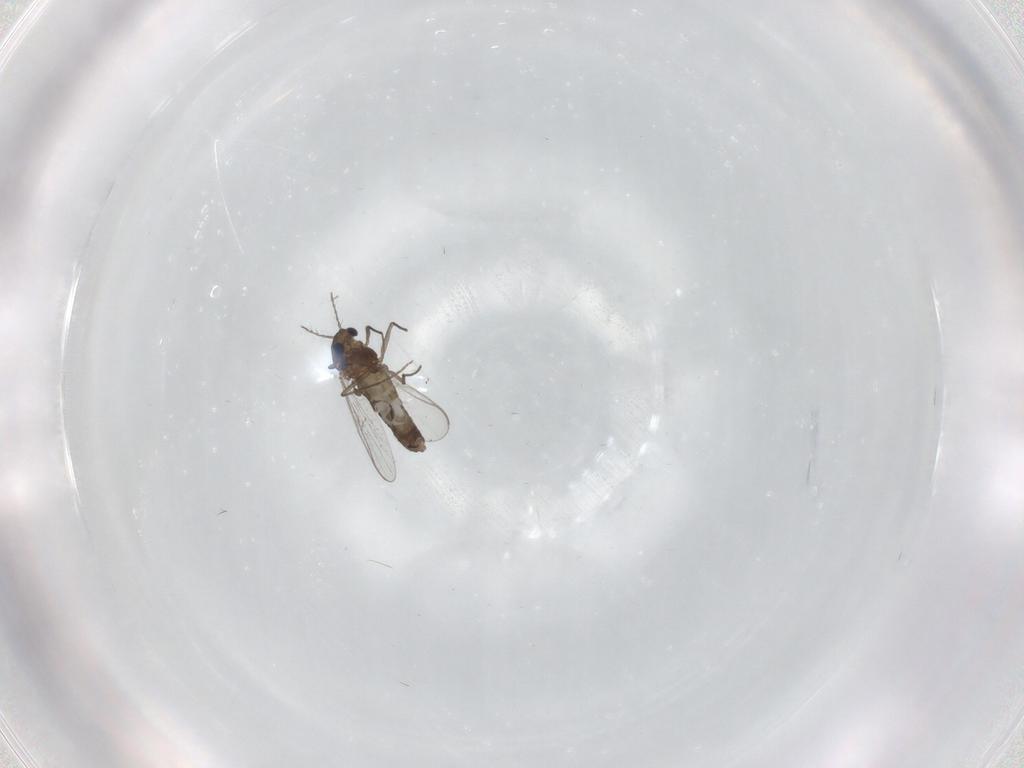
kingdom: Animalia
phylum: Arthropoda
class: Insecta
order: Diptera
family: Chironomidae
